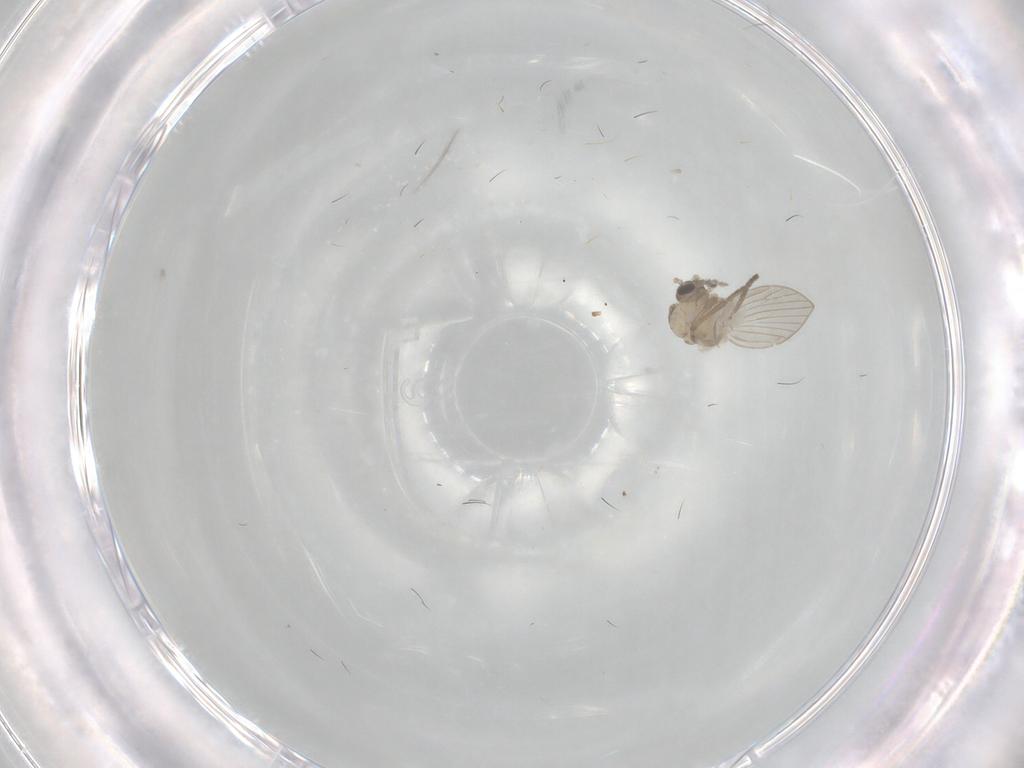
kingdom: Animalia
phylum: Arthropoda
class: Insecta
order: Diptera
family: Psychodidae
